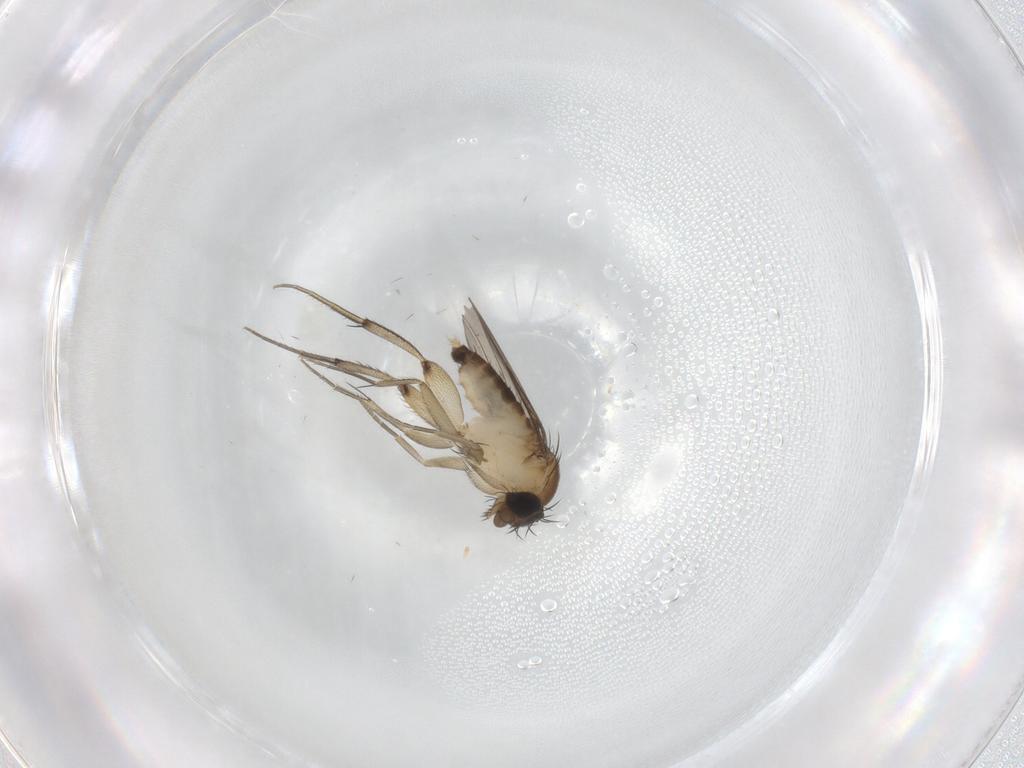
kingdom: Animalia
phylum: Arthropoda
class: Insecta
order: Diptera
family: Phoridae
